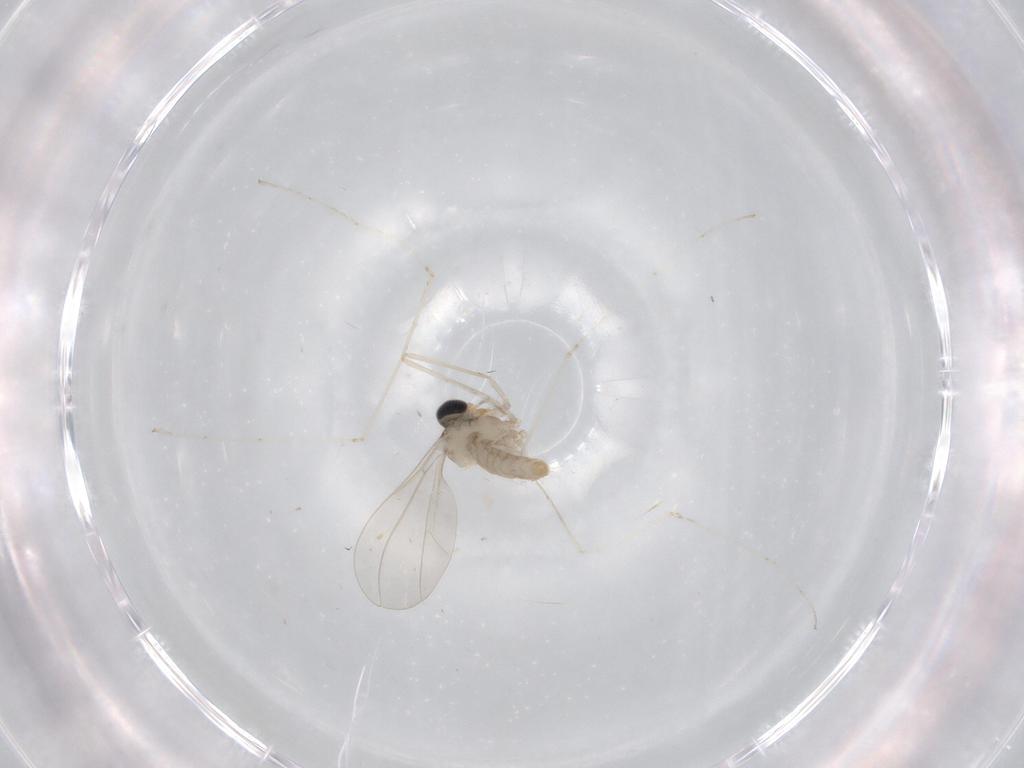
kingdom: Animalia
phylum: Arthropoda
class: Insecta
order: Diptera
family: Cecidomyiidae
